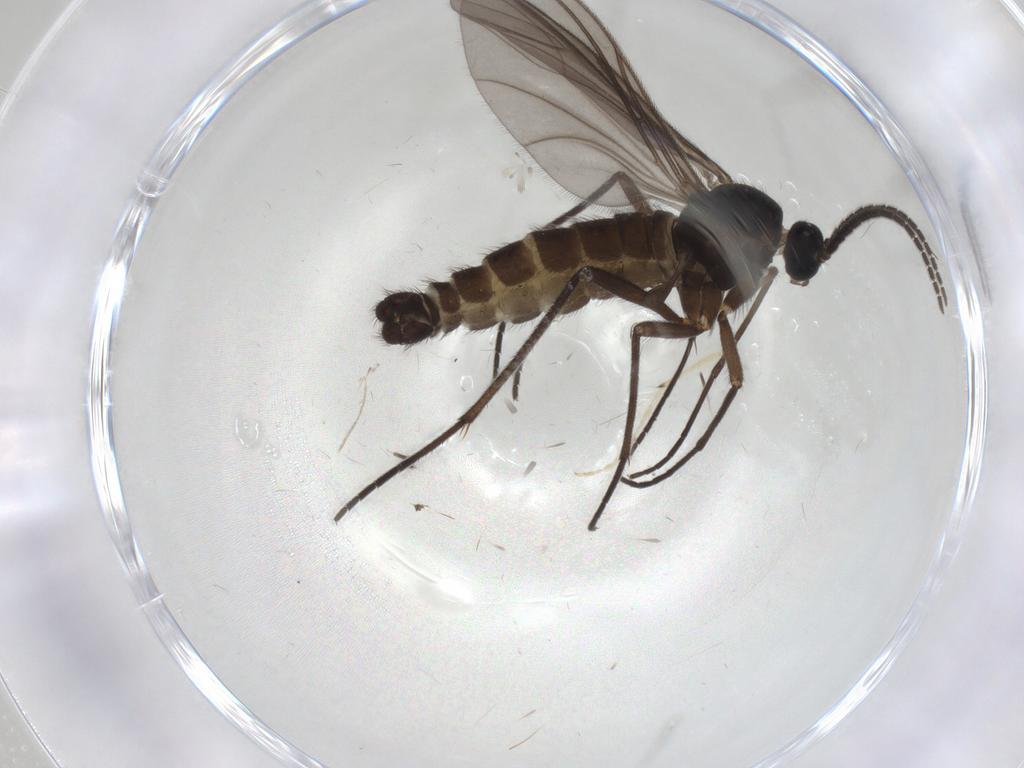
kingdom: Animalia
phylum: Arthropoda
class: Insecta
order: Diptera
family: Sciaridae
